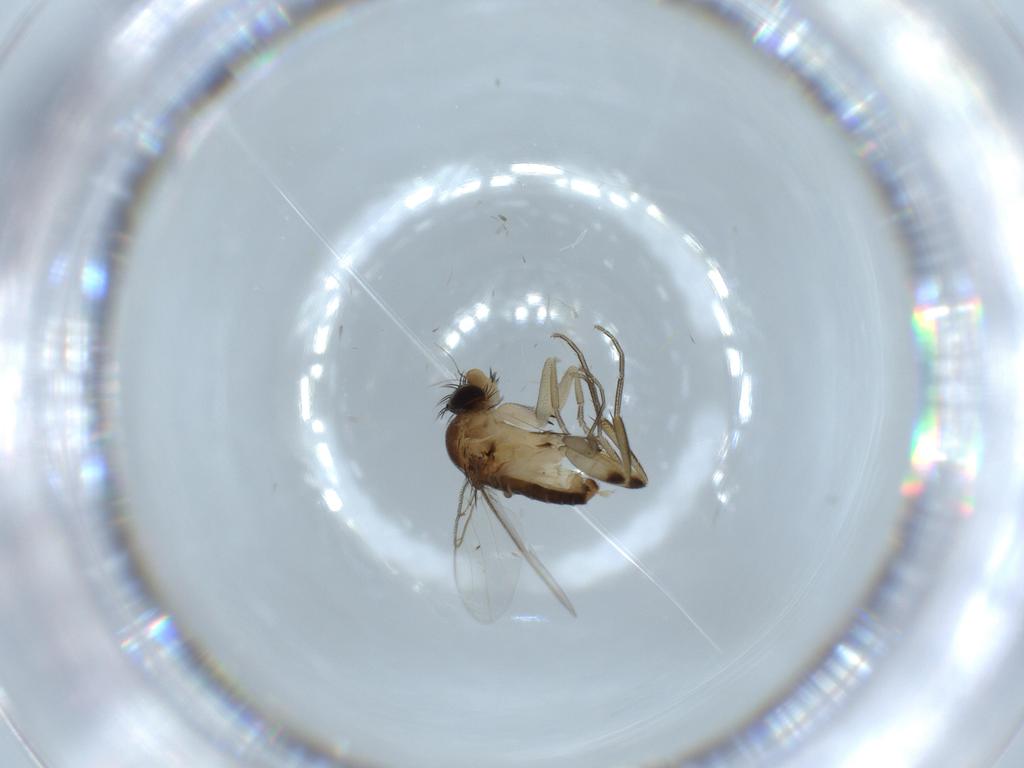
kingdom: Animalia
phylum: Arthropoda
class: Insecta
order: Diptera
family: Phoridae
